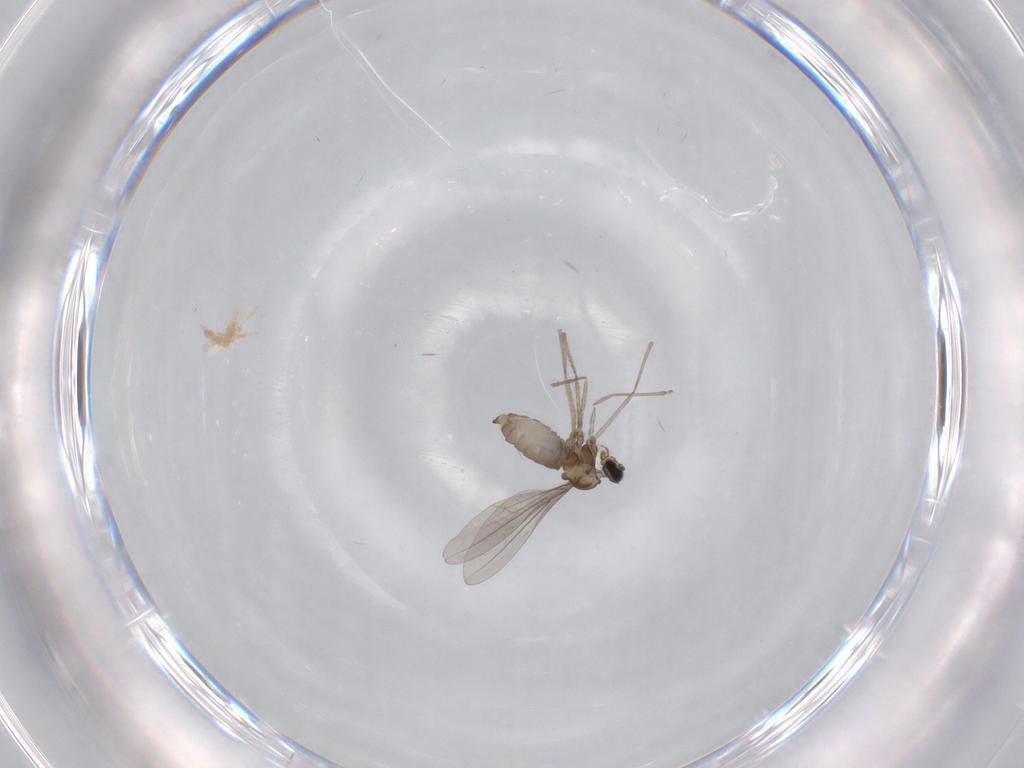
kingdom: Animalia
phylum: Arthropoda
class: Insecta
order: Diptera
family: Cecidomyiidae
